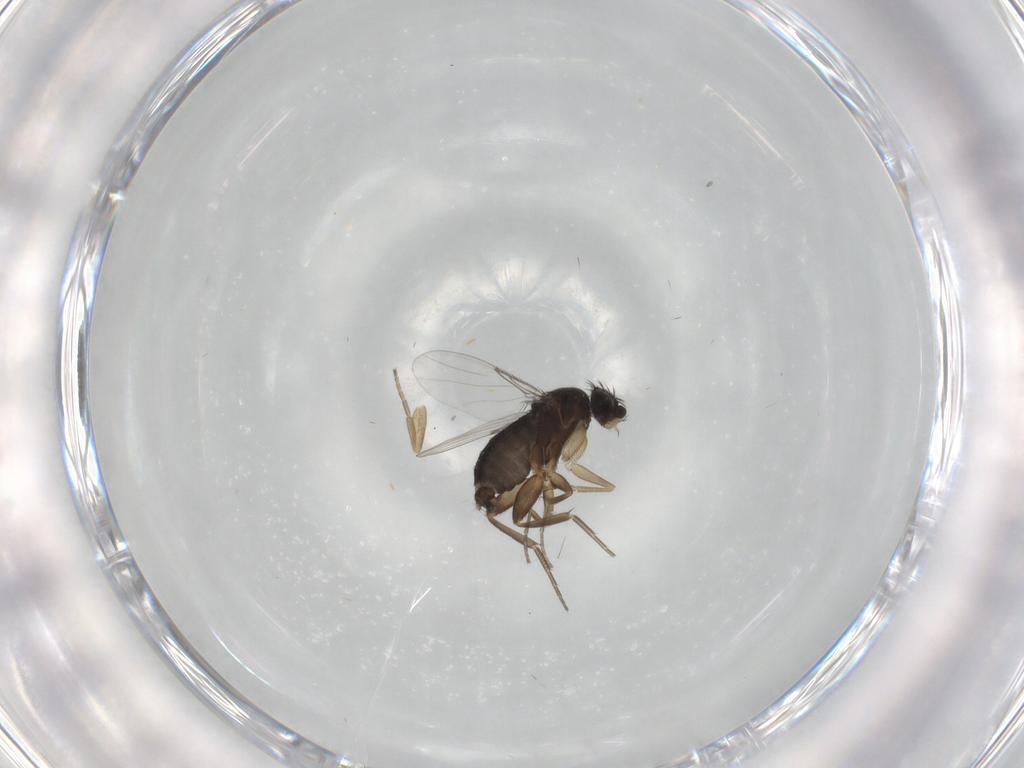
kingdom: Animalia
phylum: Arthropoda
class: Insecta
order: Diptera
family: Phoridae
